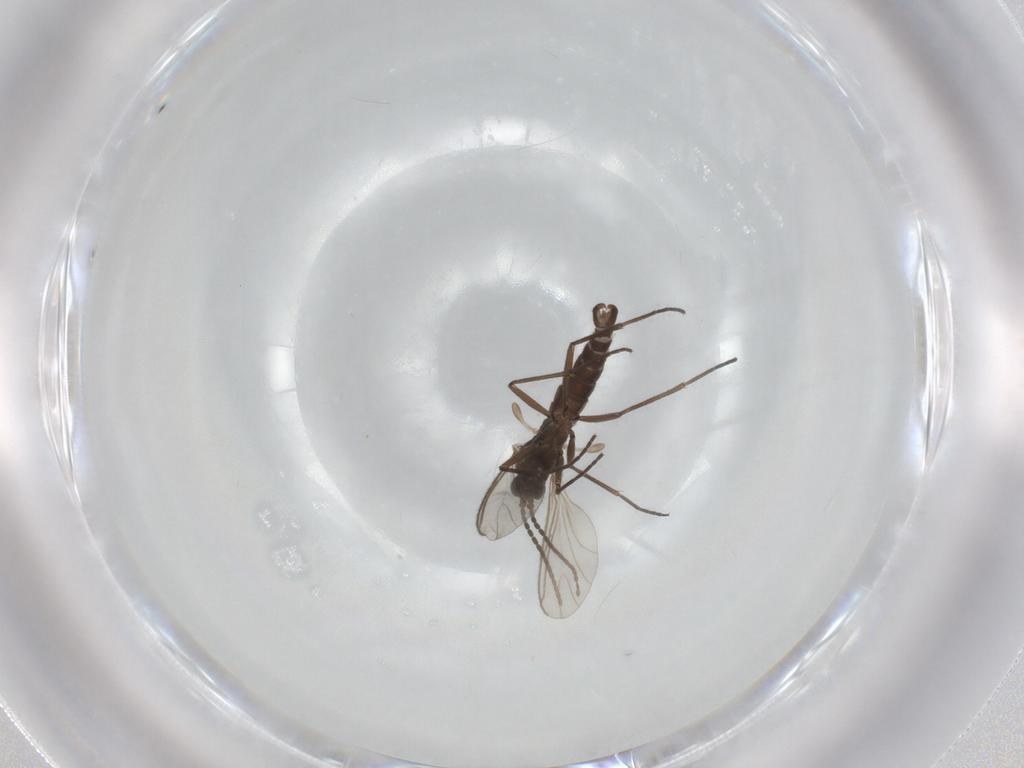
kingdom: Animalia
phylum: Arthropoda
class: Insecta
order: Diptera
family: Sciaridae
